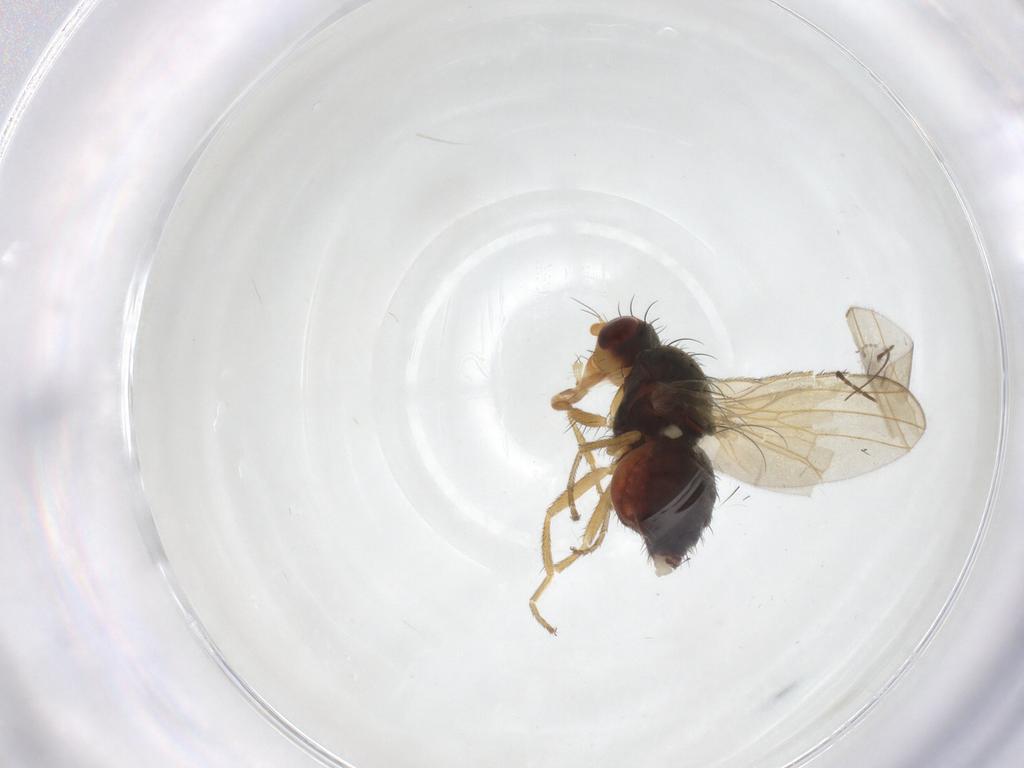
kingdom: Animalia
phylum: Arthropoda
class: Insecta
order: Diptera
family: Heleomyzidae
